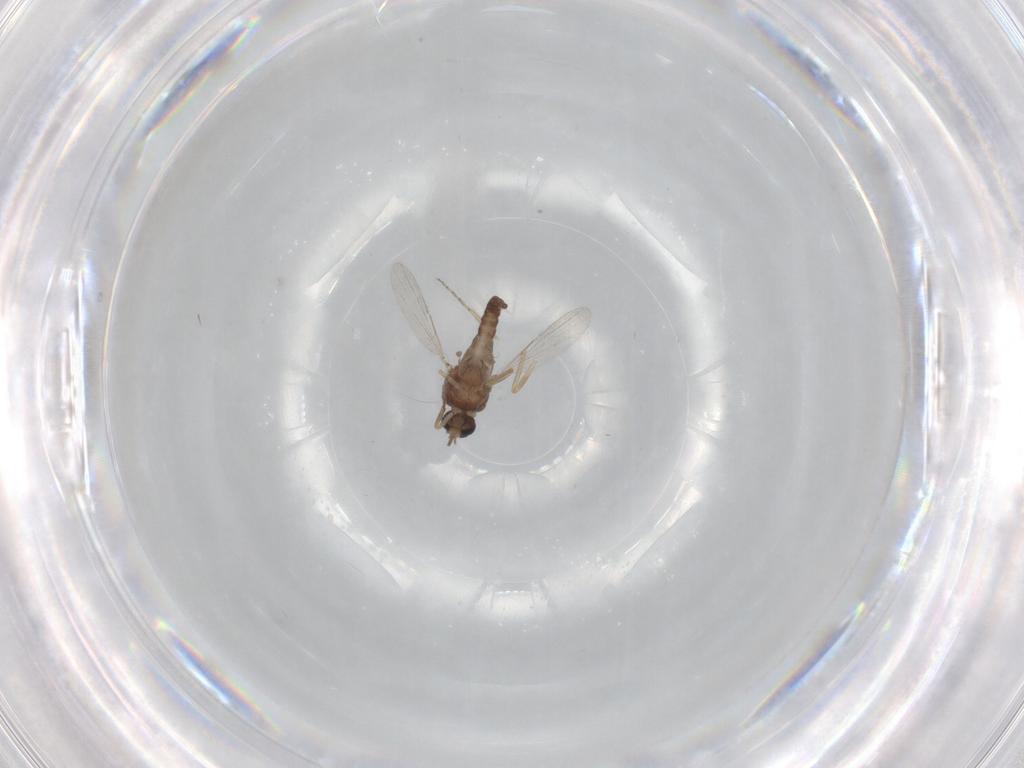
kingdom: Animalia
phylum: Arthropoda
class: Insecta
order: Diptera
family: Ceratopogonidae
